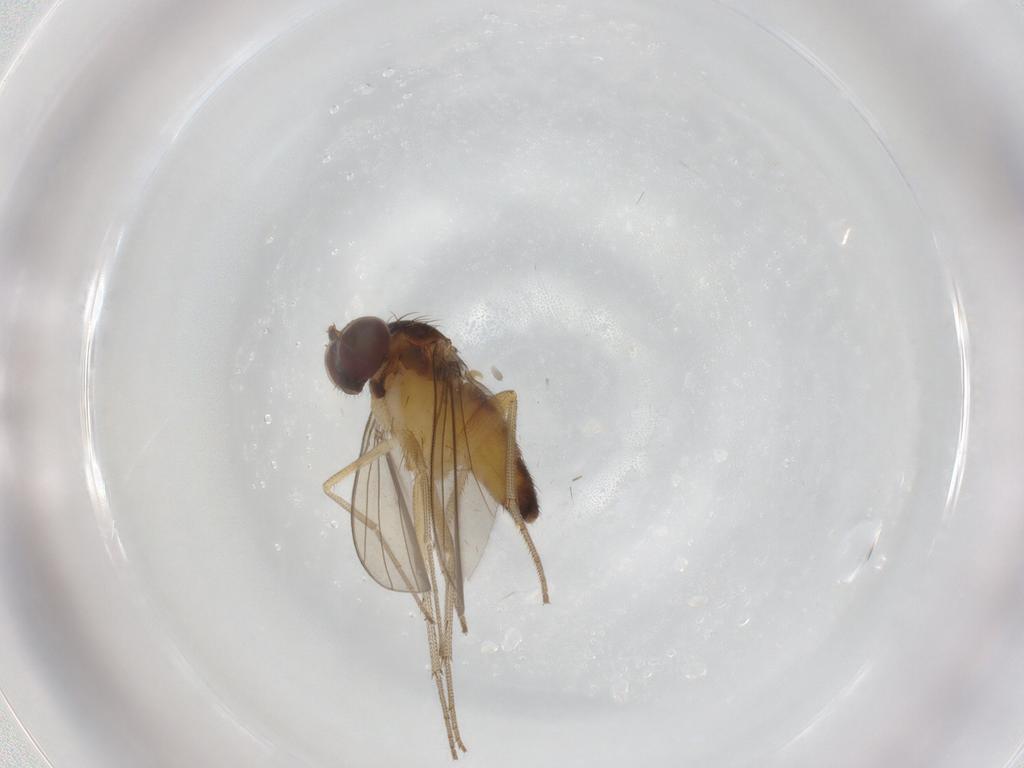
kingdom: Animalia
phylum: Arthropoda
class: Insecta
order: Diptera
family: Dolichopodidae
